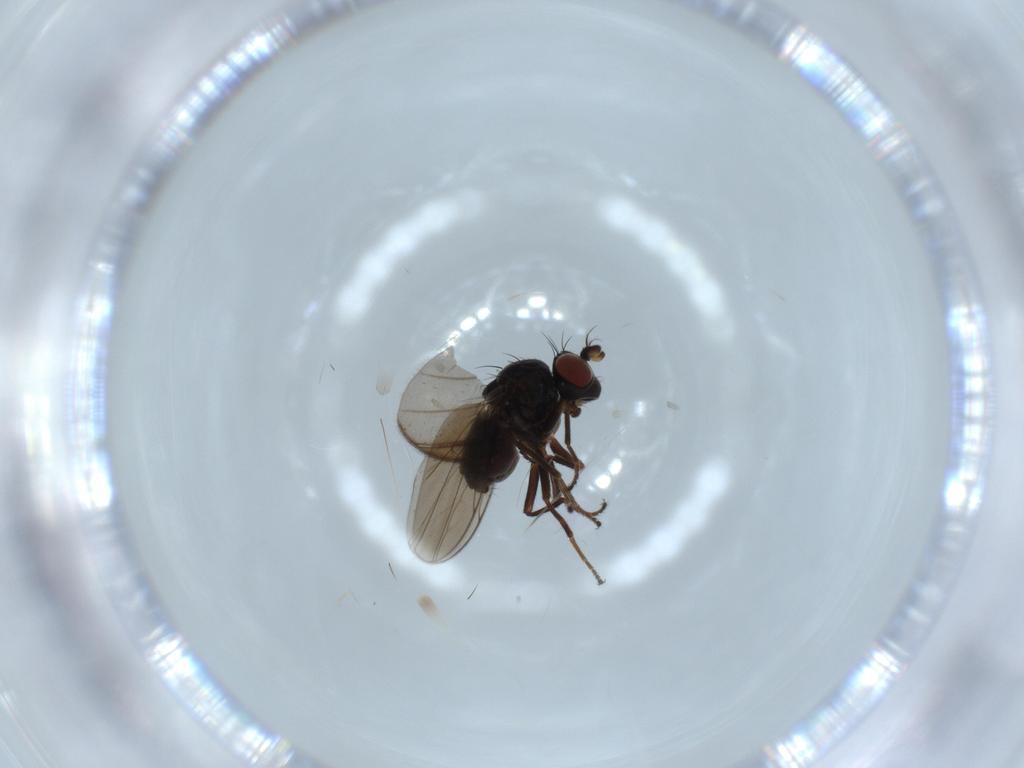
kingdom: Animalia
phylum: Arthropoda
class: Insecta
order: Diptera
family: Ephydridae
